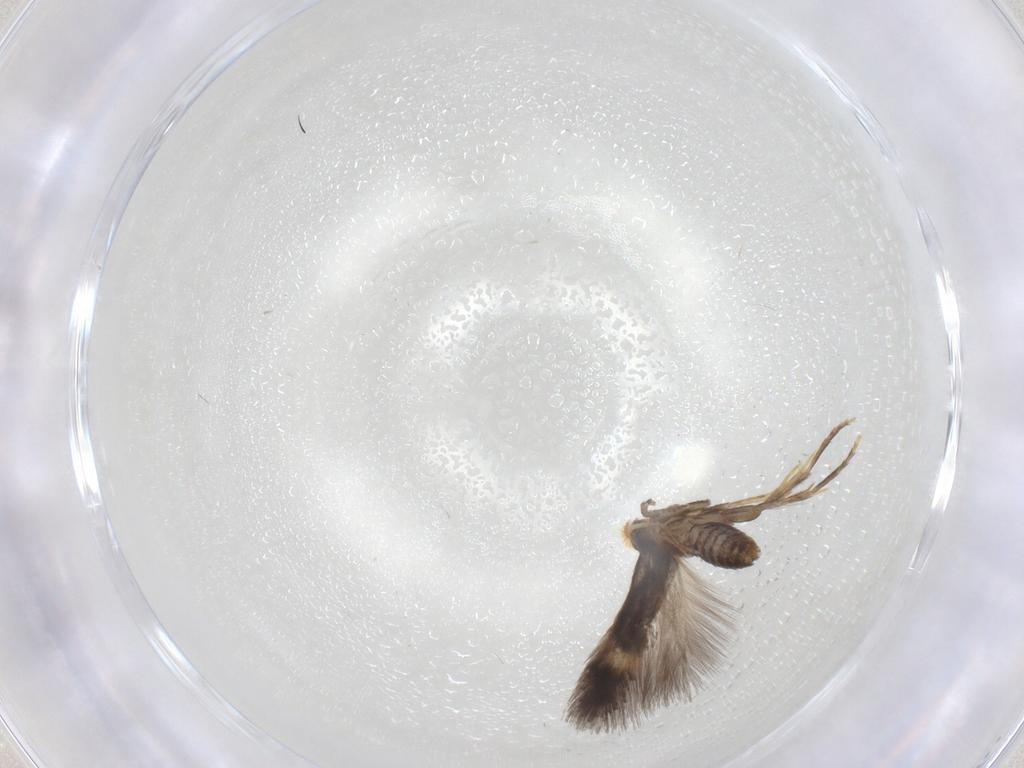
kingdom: Animalia
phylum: Arthropoda
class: Insecta
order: Lepidoptera
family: Nepticulidae
